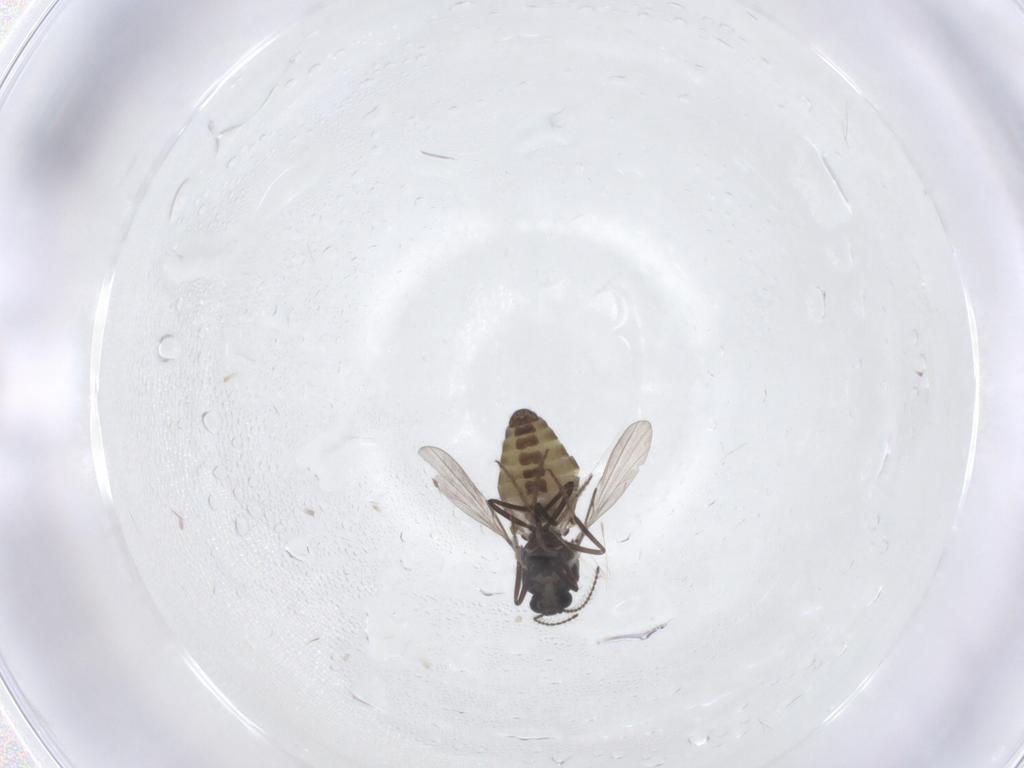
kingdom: Animalia
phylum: Arthropoda
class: Insecta
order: Diptera
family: Ceratopogonidae
